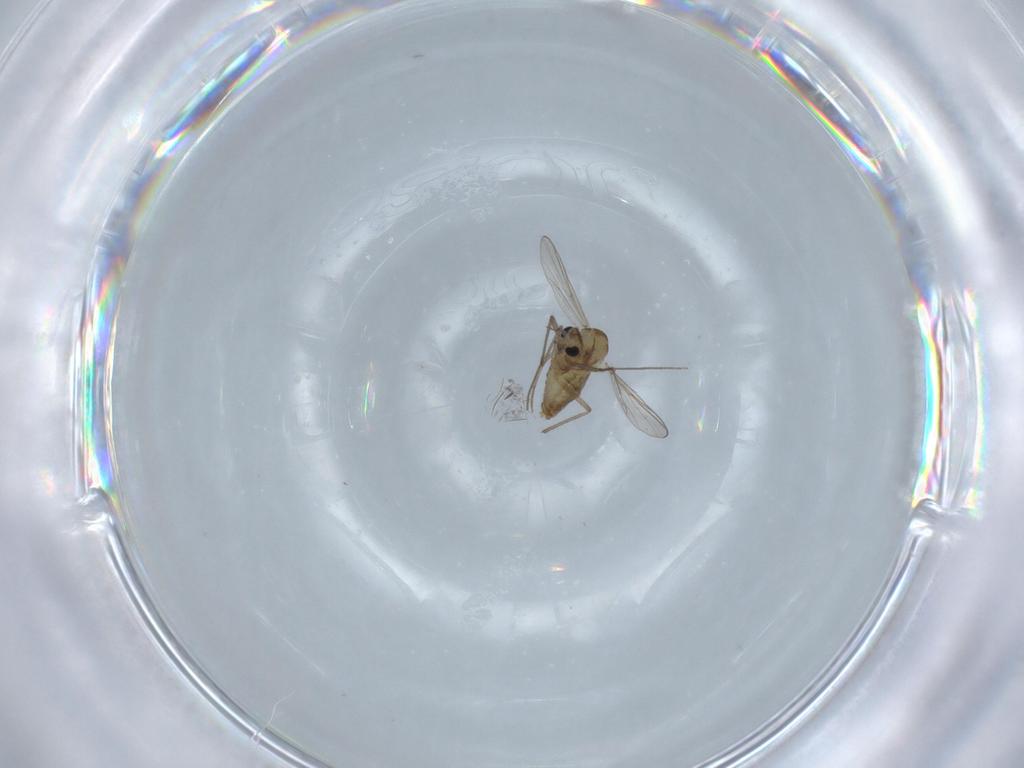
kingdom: Animalia
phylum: Arthropoda
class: Insecta
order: Diptera
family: Chironomidae
